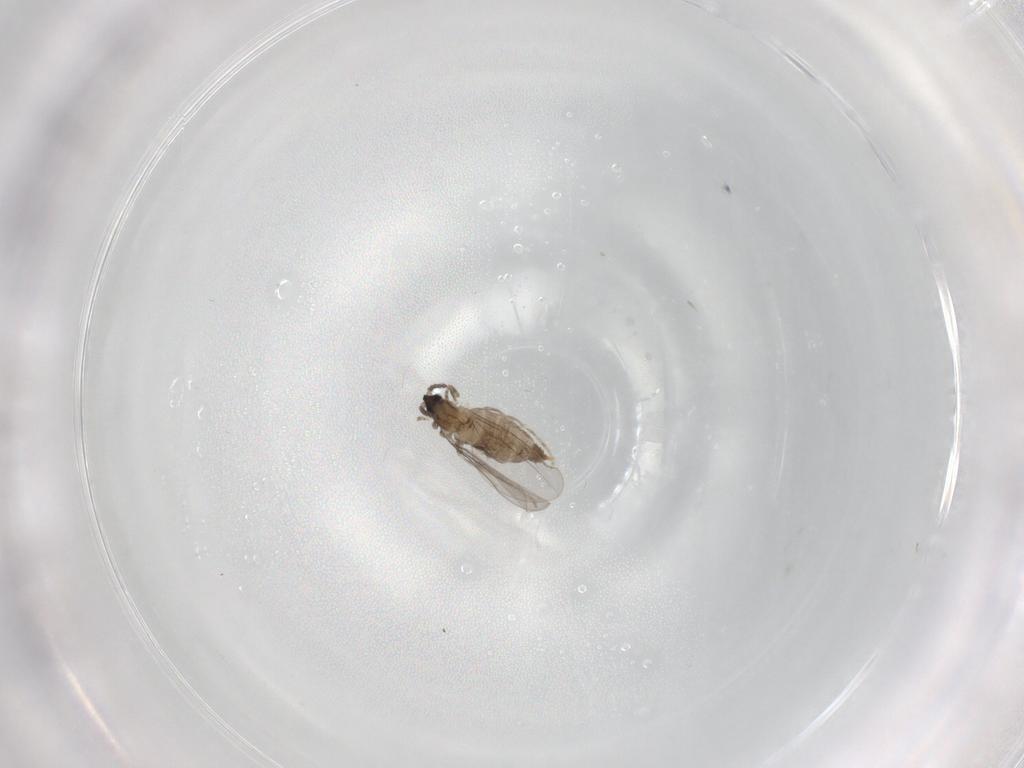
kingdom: Animalia
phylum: Arthropoda
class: Insecta
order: Diptera
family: Cecidomyiidae
